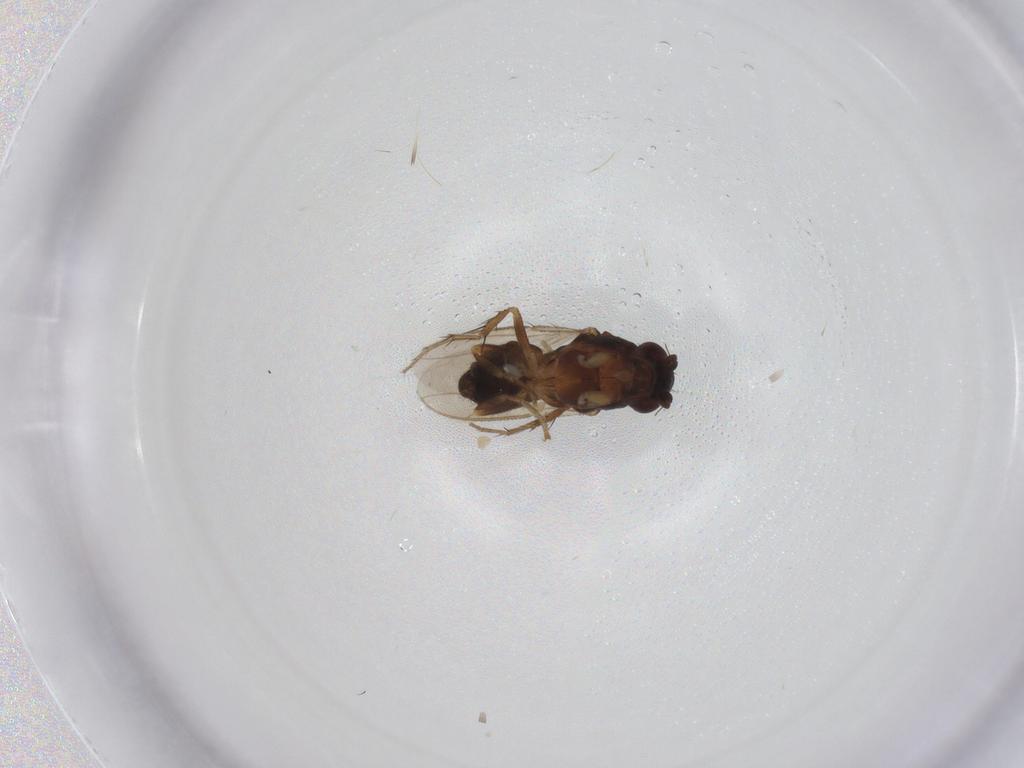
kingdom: Animalia
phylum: Arthropoda
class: Insecta
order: Diptera
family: Sphaeroceridae
